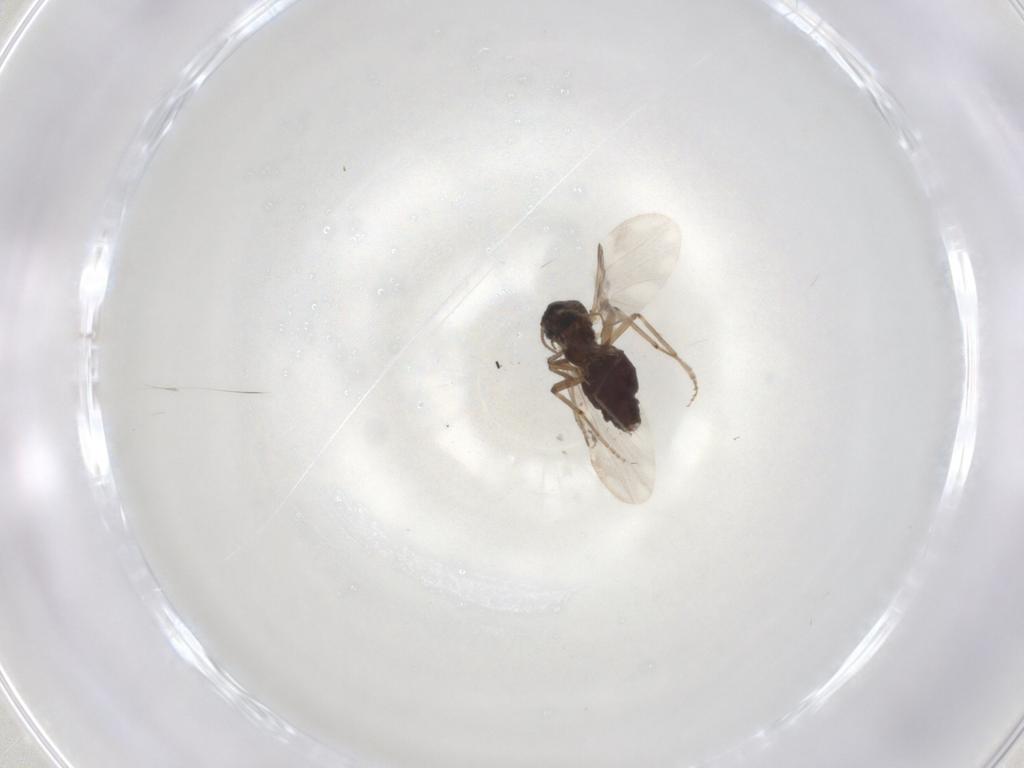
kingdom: Animalia
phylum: Arthropoda
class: Insecta
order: Diptera
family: Ceratopogonidae
